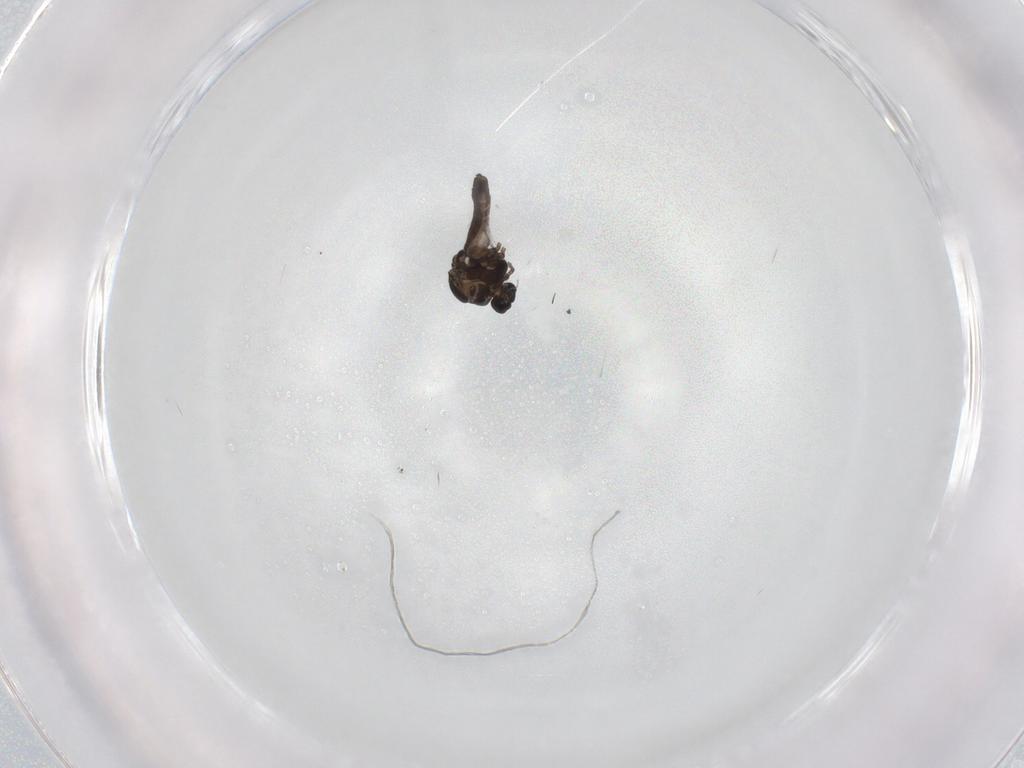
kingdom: Animalia
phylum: Arthropoda
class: Insecta
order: Diptera
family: Ceratopogonidae
